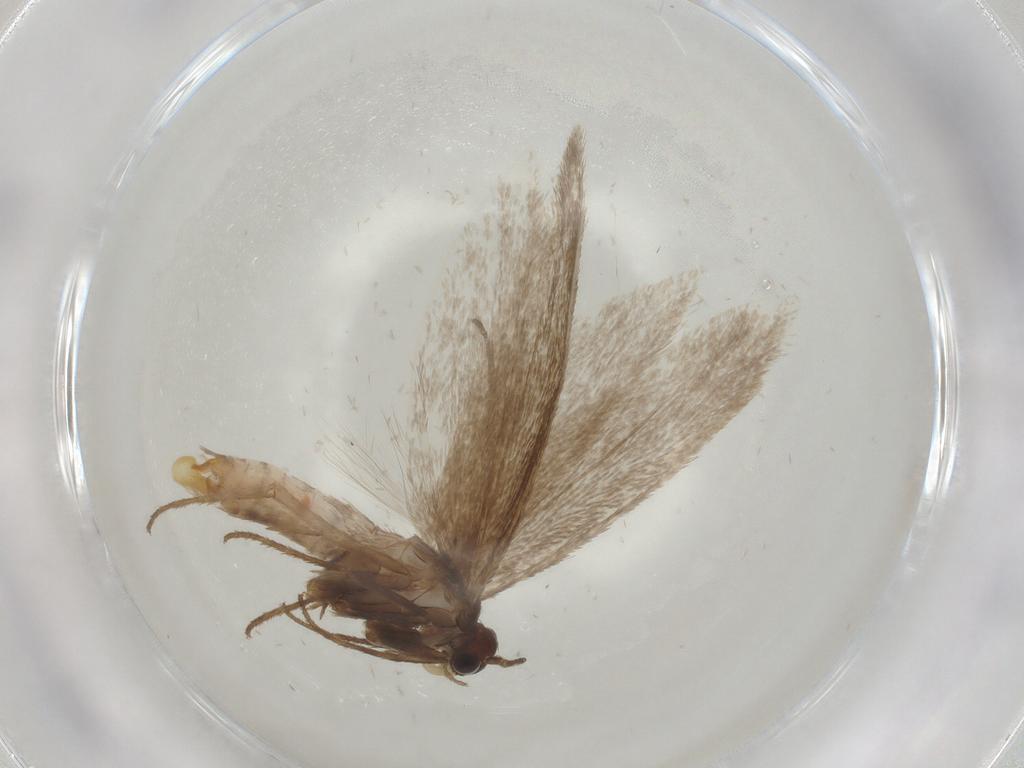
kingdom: Animalia
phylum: Arthropoda
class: Insecta
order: Lepidoptera
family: Limacodidae
